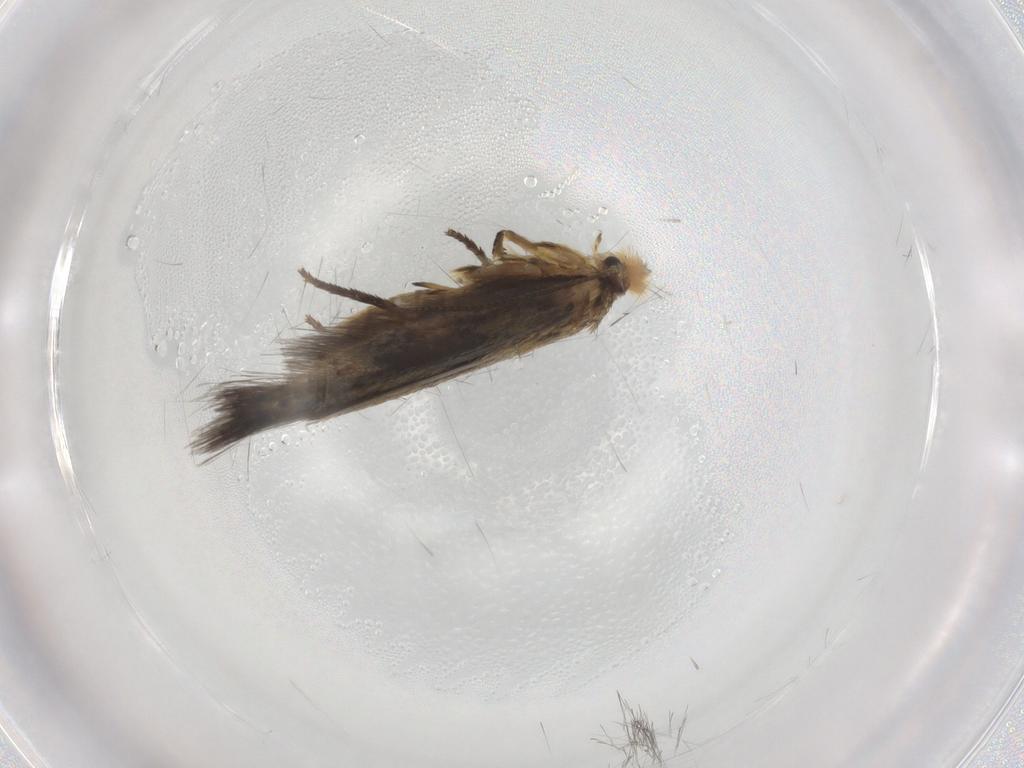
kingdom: Animalia
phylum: Arthropoda
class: Insecta
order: Lepidoptera
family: Nepticulidae
